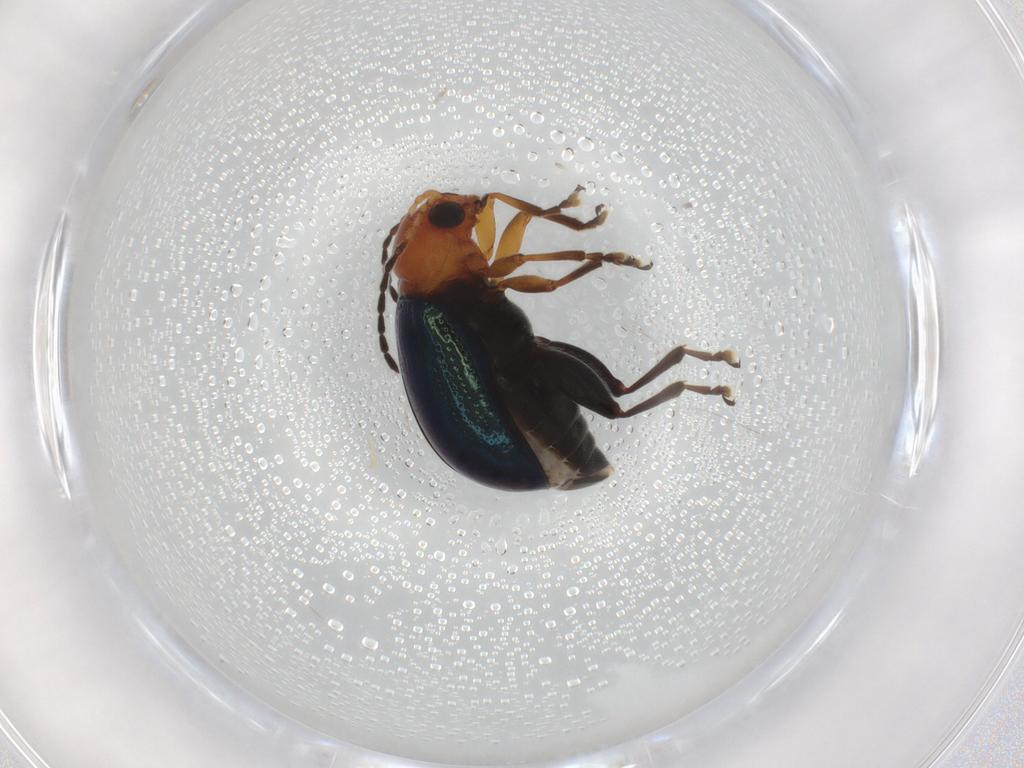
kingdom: Animalia
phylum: Arthropoda
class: Insecta
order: Coleoptera
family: Chrysomelidae
